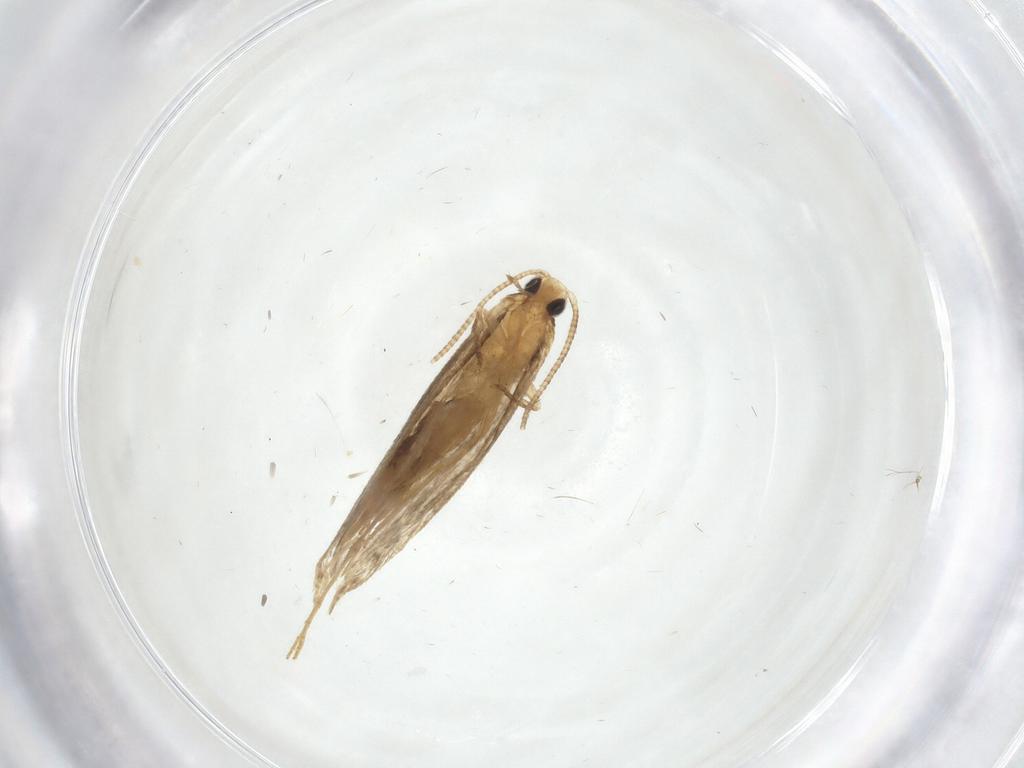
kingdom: Animalia
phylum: Arthropoda
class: Insecta
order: Lepidoptera
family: Tineidae
